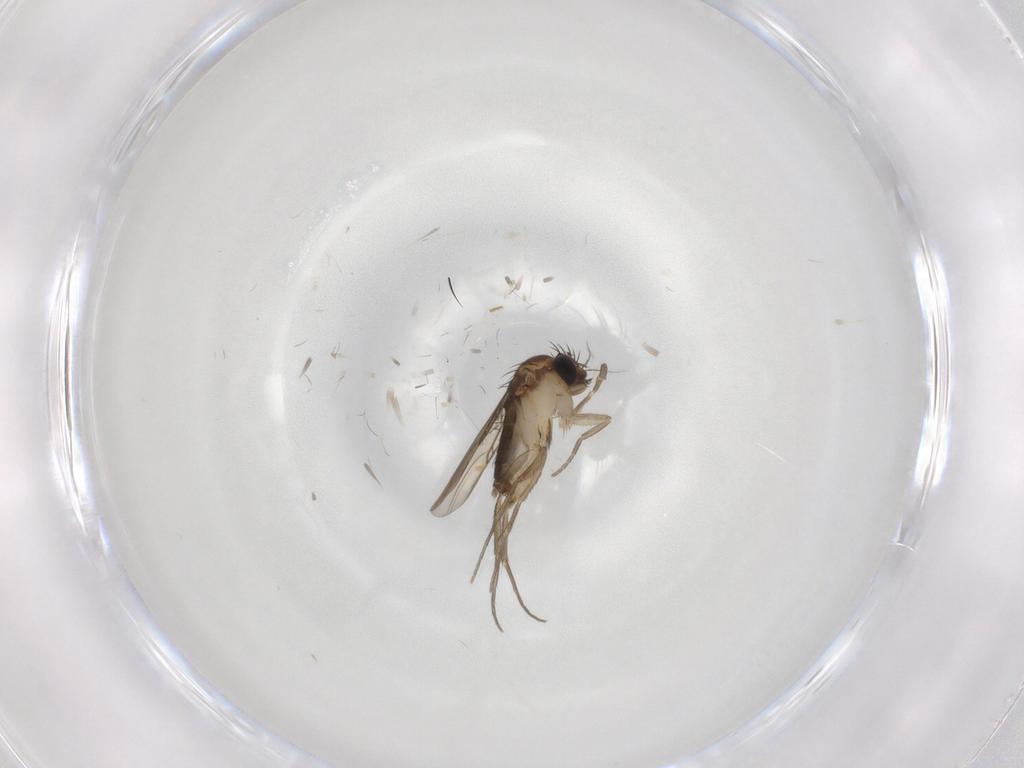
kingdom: Animalia
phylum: Arthropoda
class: Insecta
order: Diptera
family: Phoridae
